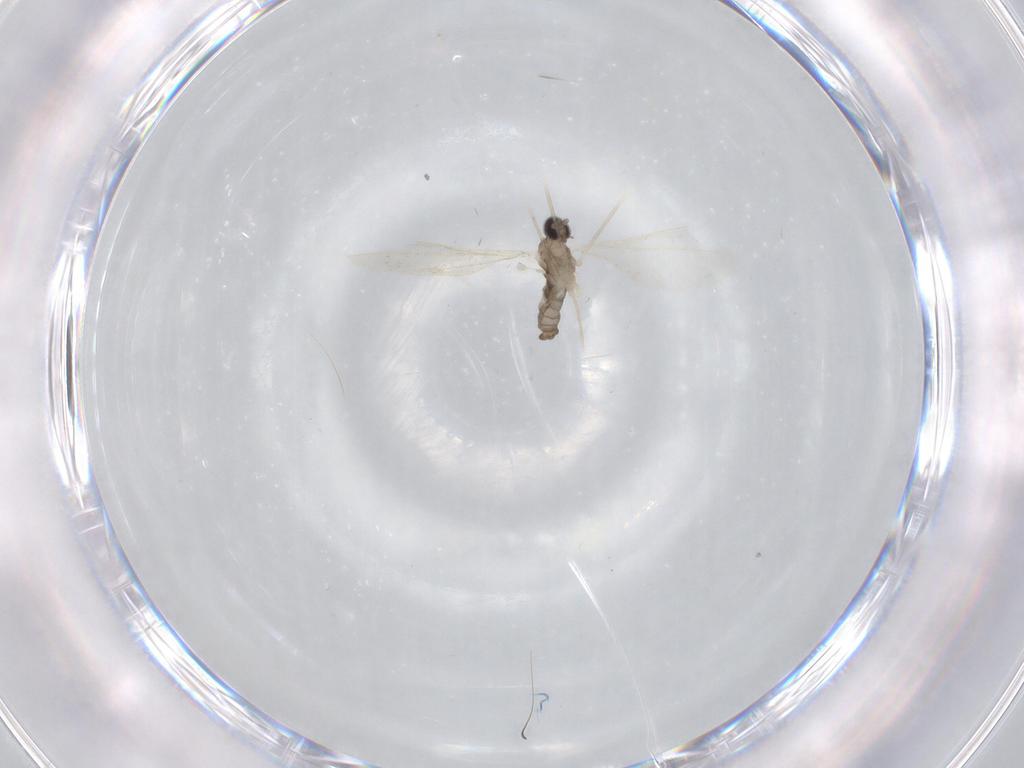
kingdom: Animalia
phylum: Arthropoda
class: Insecta
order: Diptera
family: Cecidomyiidae
